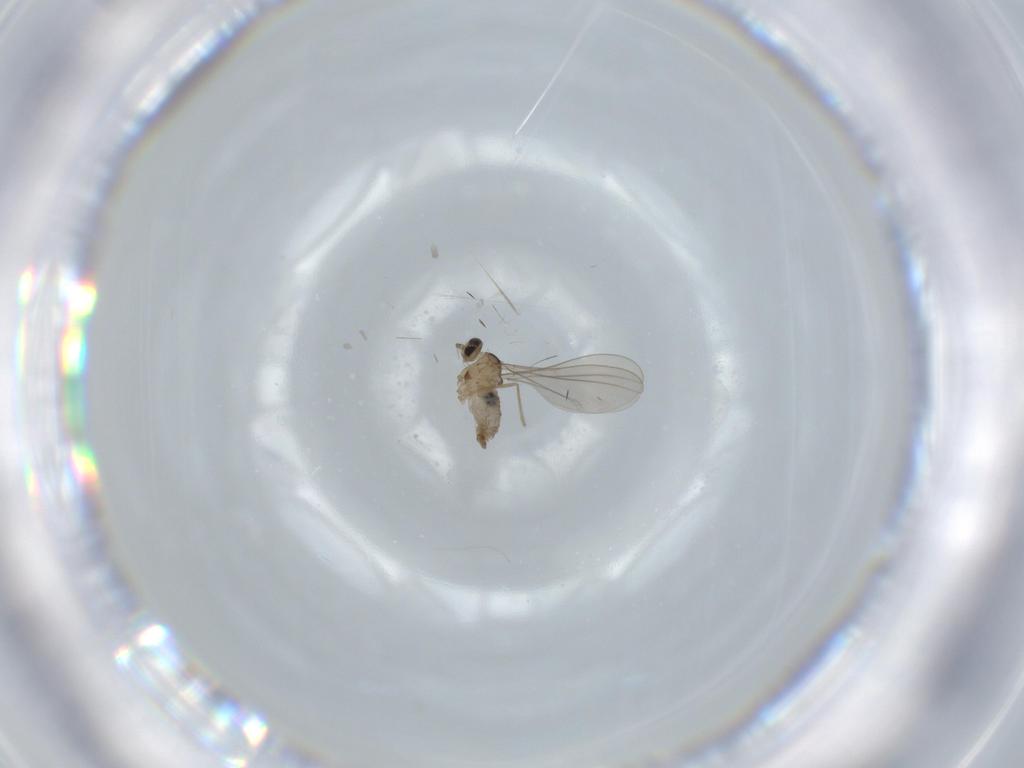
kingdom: Animalia
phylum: Arthropoda
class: Insecta
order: Diptera
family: Cecidomyiidae
